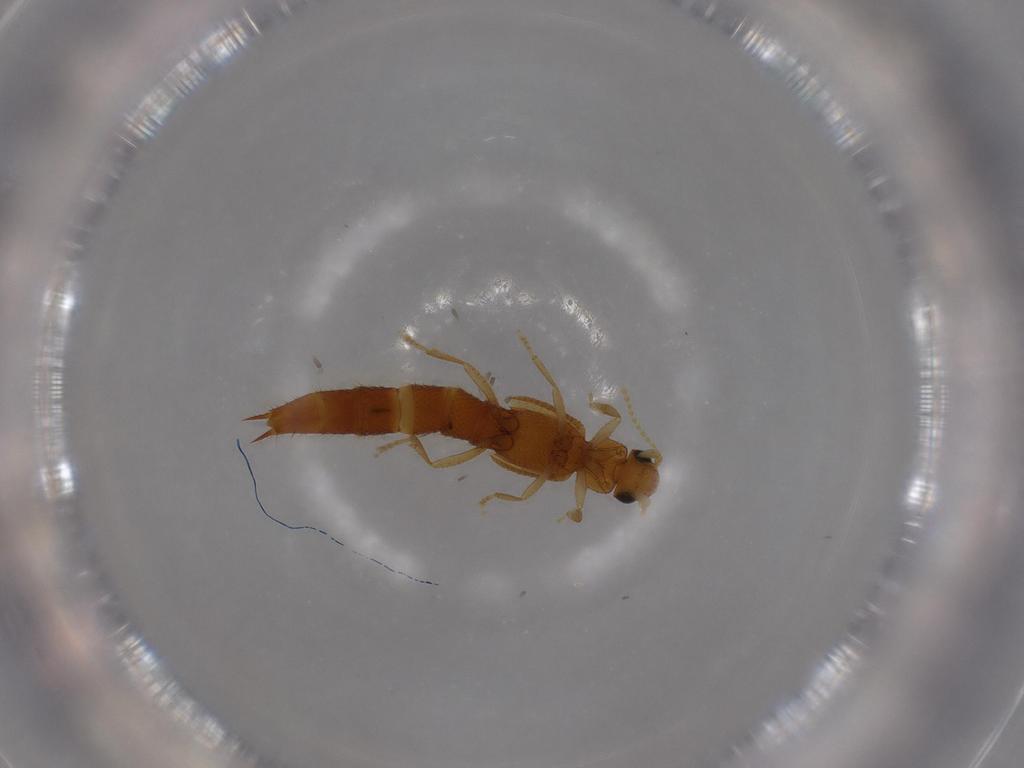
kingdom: Animalia
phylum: Arthropoda
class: Insecta
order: Coleoptera
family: Staphylinidae
